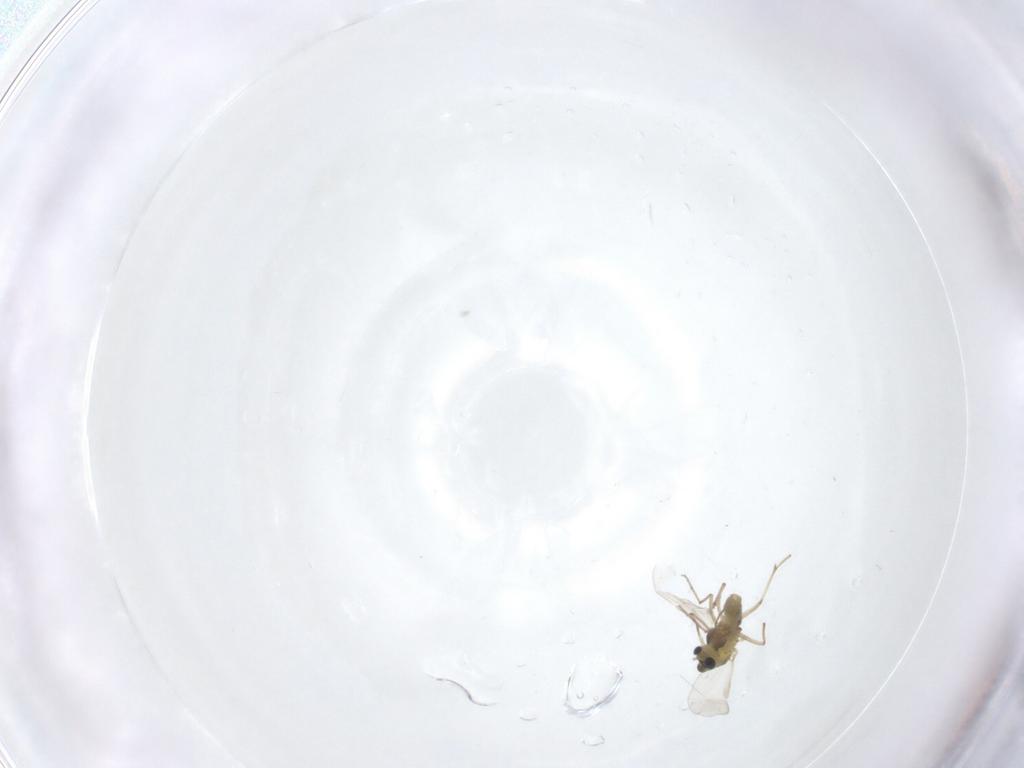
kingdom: Animalia
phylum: Arthropoda
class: Insecta
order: Diptera
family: Chironomidae
